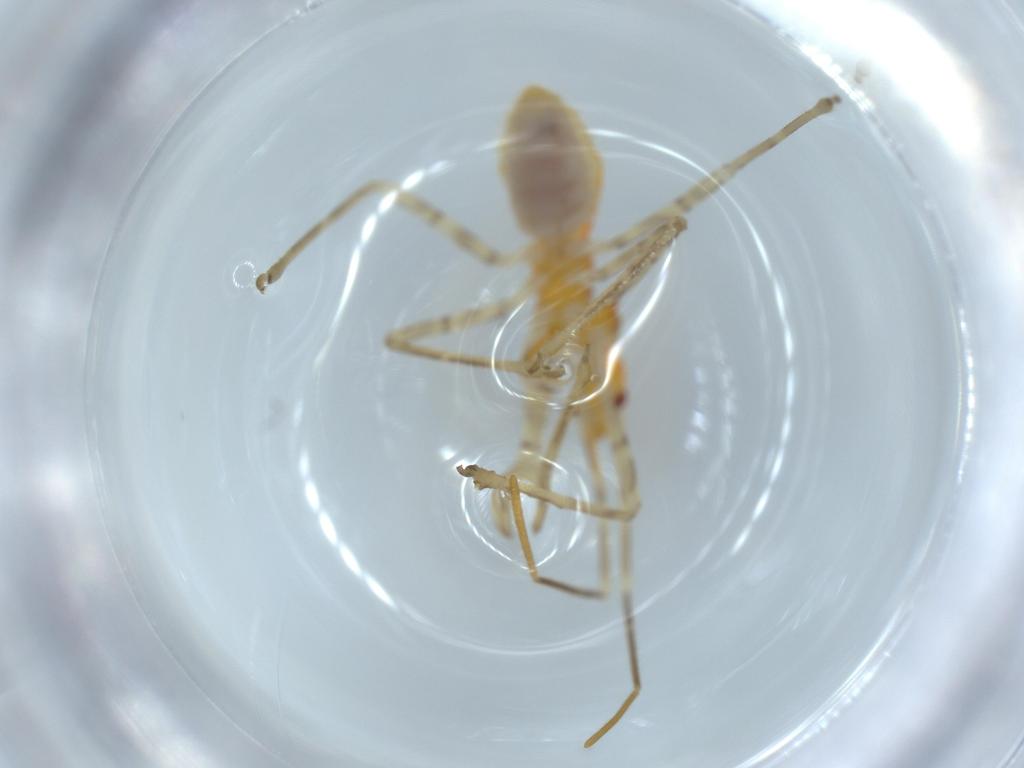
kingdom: Animalia
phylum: Arthropoda
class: Insecta
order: Hemiptera
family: Reduviidae
